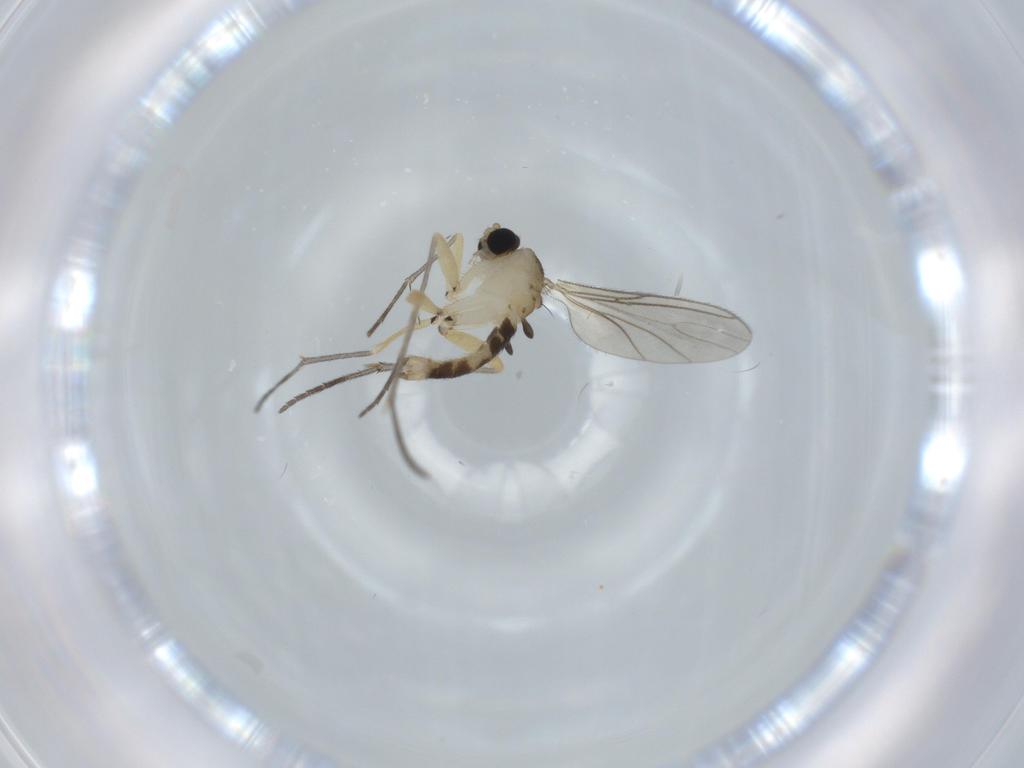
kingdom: Animalia
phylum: Arthropoda
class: Insecta
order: Diptera
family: Sciaridae
